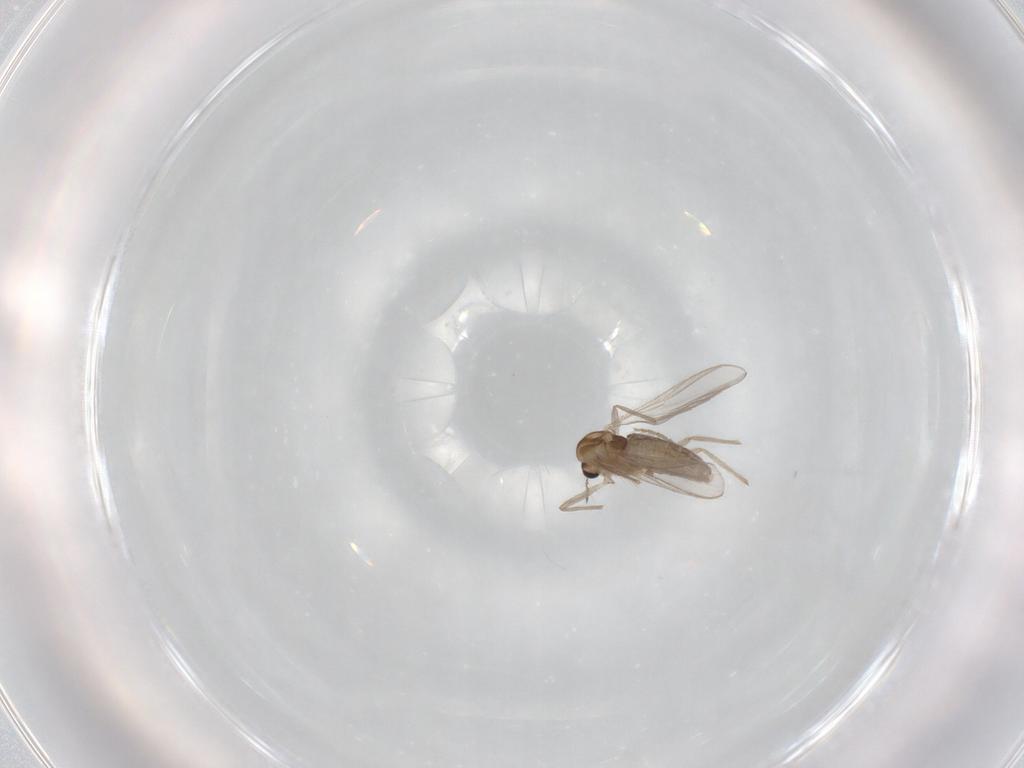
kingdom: Animalia
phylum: Arthropoda
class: Insecta
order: Diptera
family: Chironomidae
